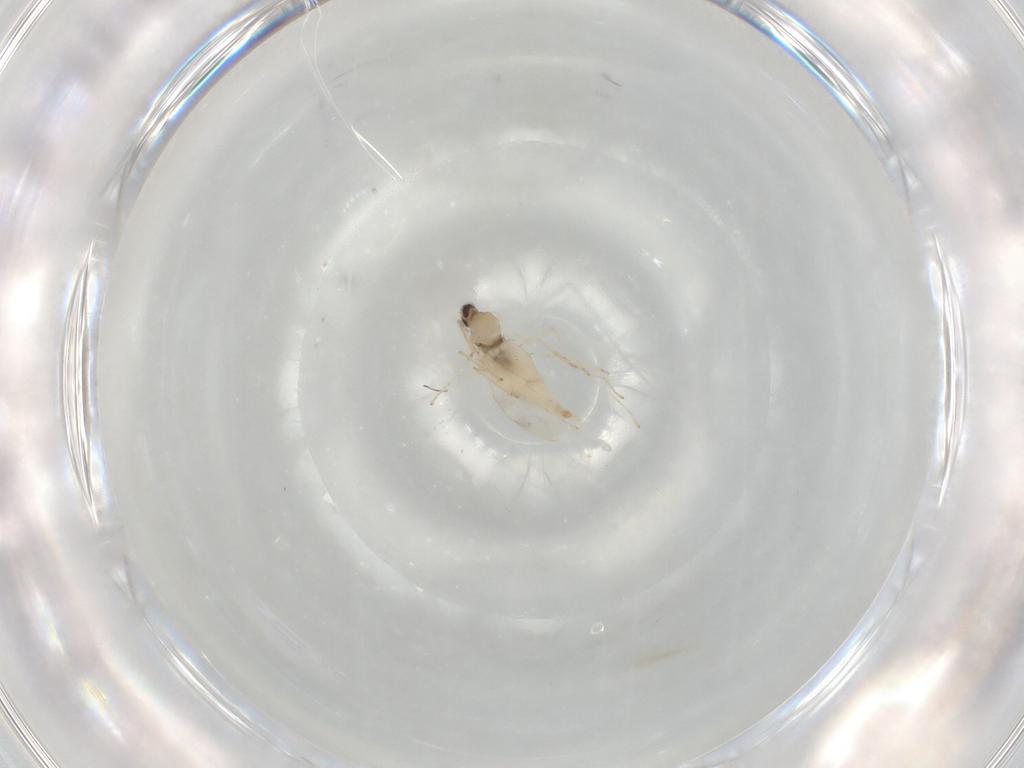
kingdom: Animalia
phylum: Arthropoda
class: Insecta
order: Diptera
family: Cecidomyiidae
